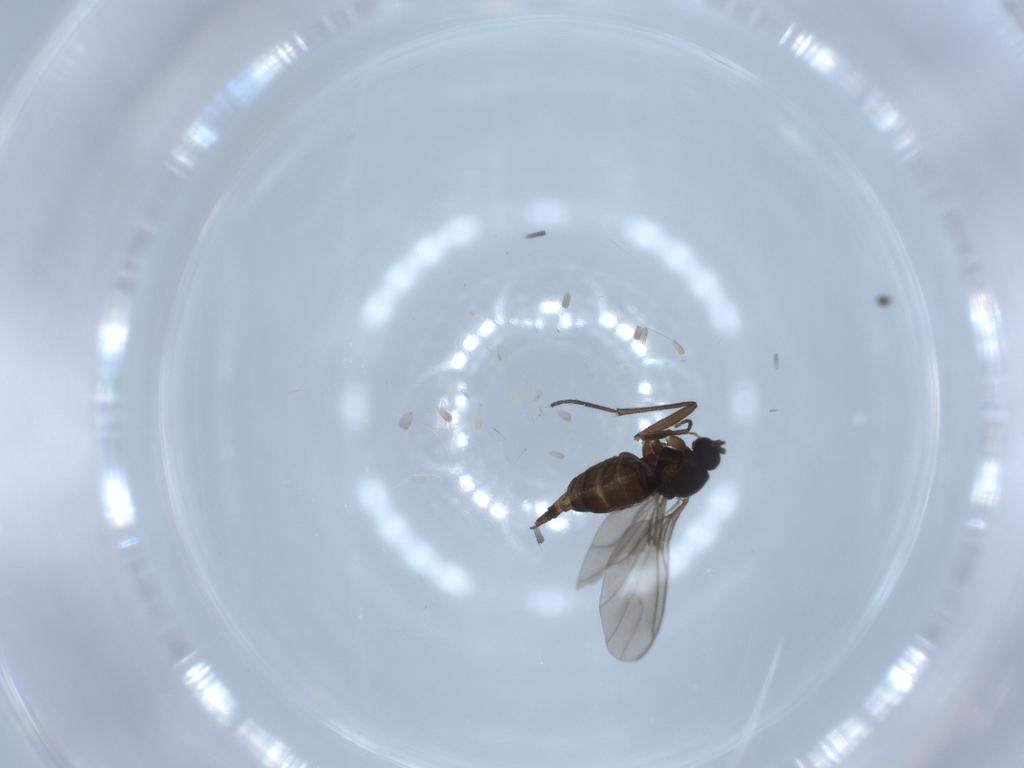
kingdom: Animalia
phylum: Arthropoda
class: Insecta
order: Diptera
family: Sciaridae
